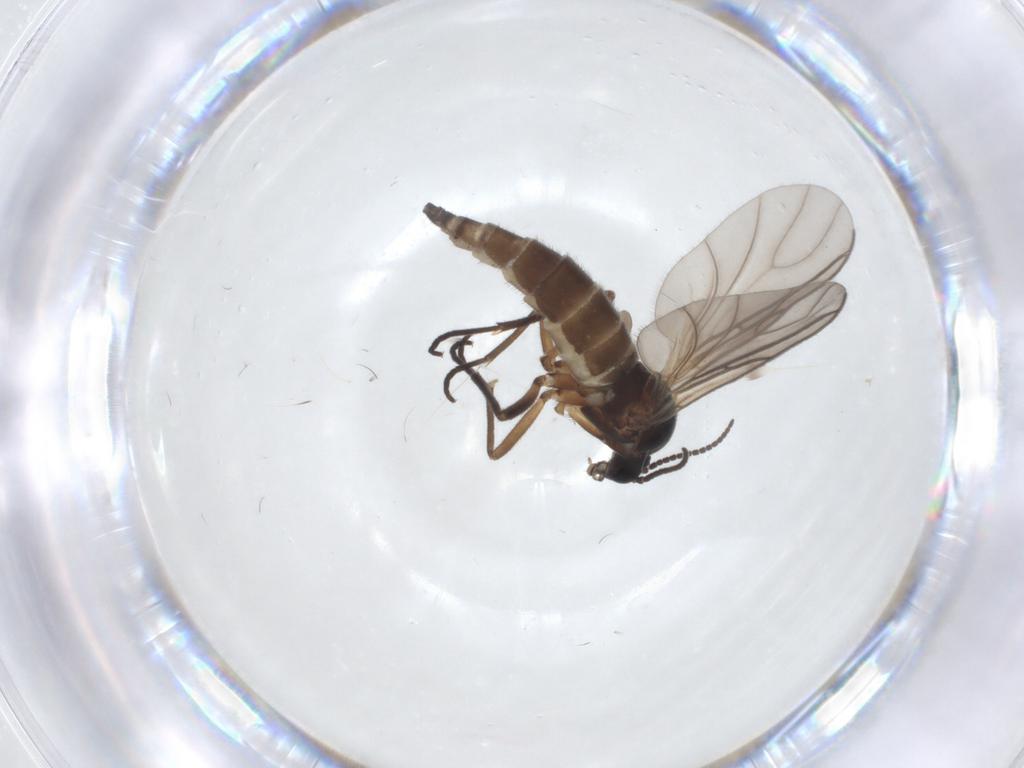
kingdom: Animalia
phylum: Arthropoda
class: Insecta
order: Diptera
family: Sciaridae
